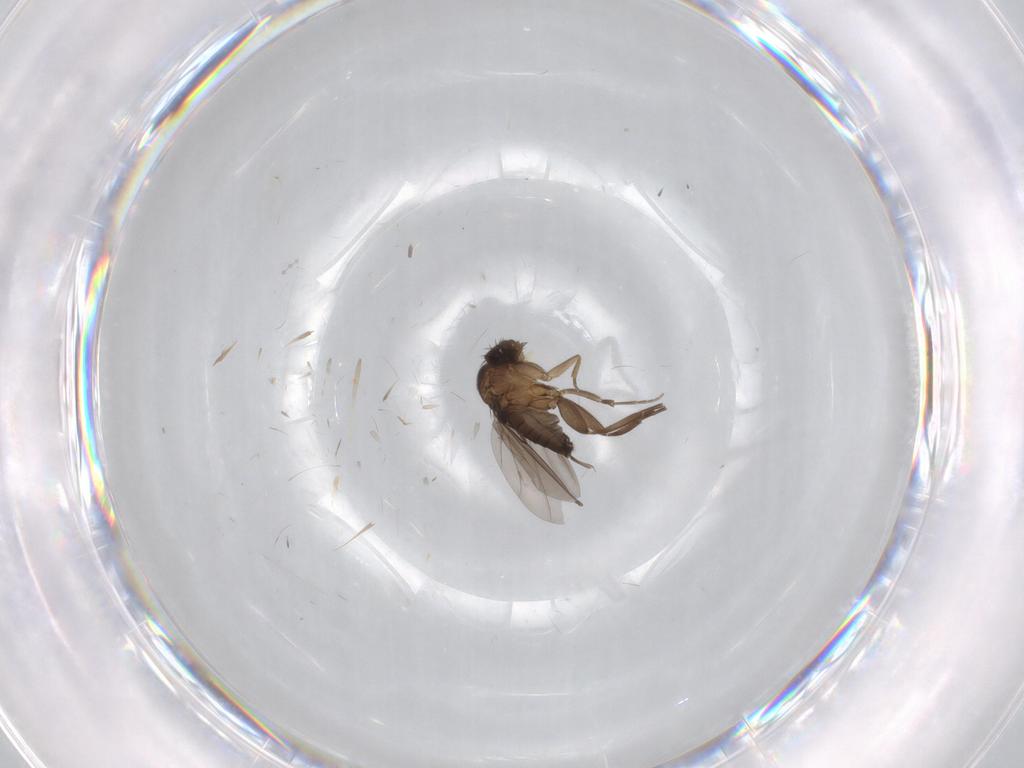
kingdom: Animalia
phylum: Arthropoda
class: Insecta
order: Diptera
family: Phoridae
